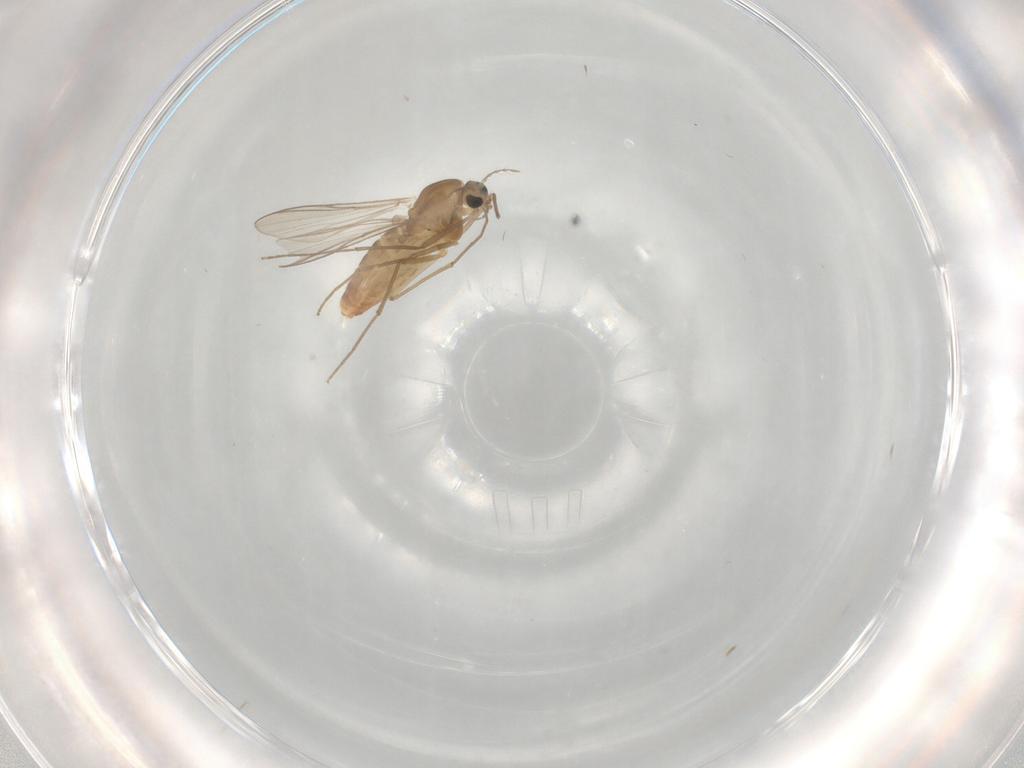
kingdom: Animalia
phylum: Arthropoda
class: Insecta
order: Diptera
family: Chironomidae
